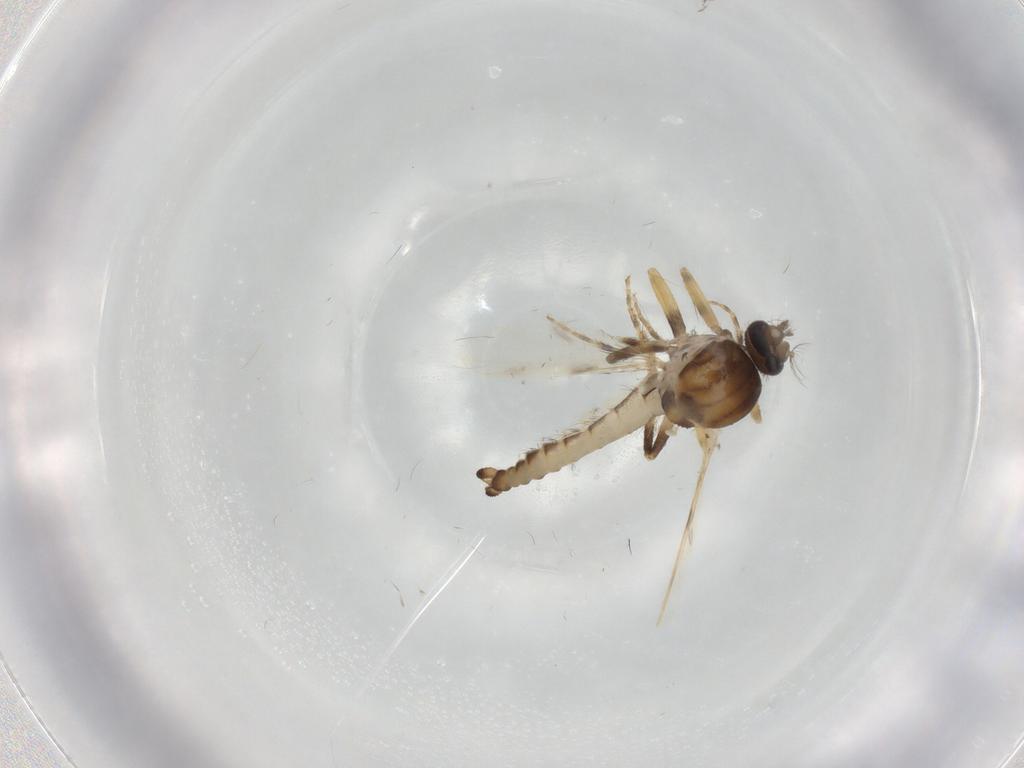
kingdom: Animalia
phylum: Arthropoda
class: Insecta
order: Diptera
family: Ceratopogonidae
